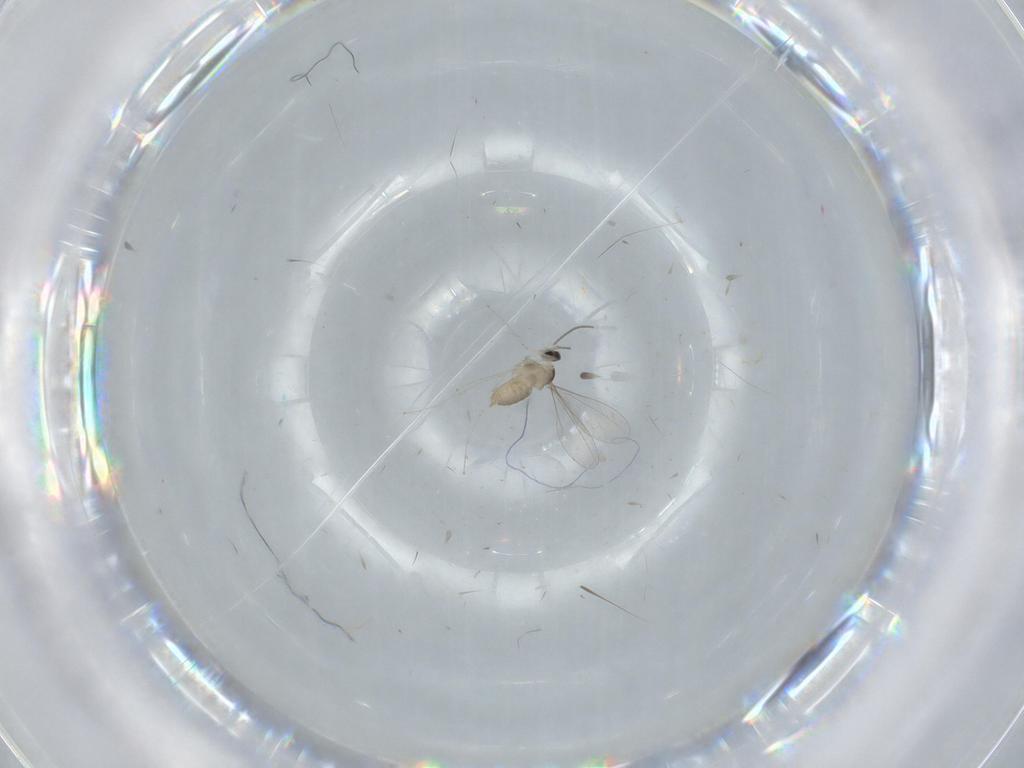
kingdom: Animalia
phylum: Arthropoda
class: Insecta
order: Diptera
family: Cecidomyiidae
